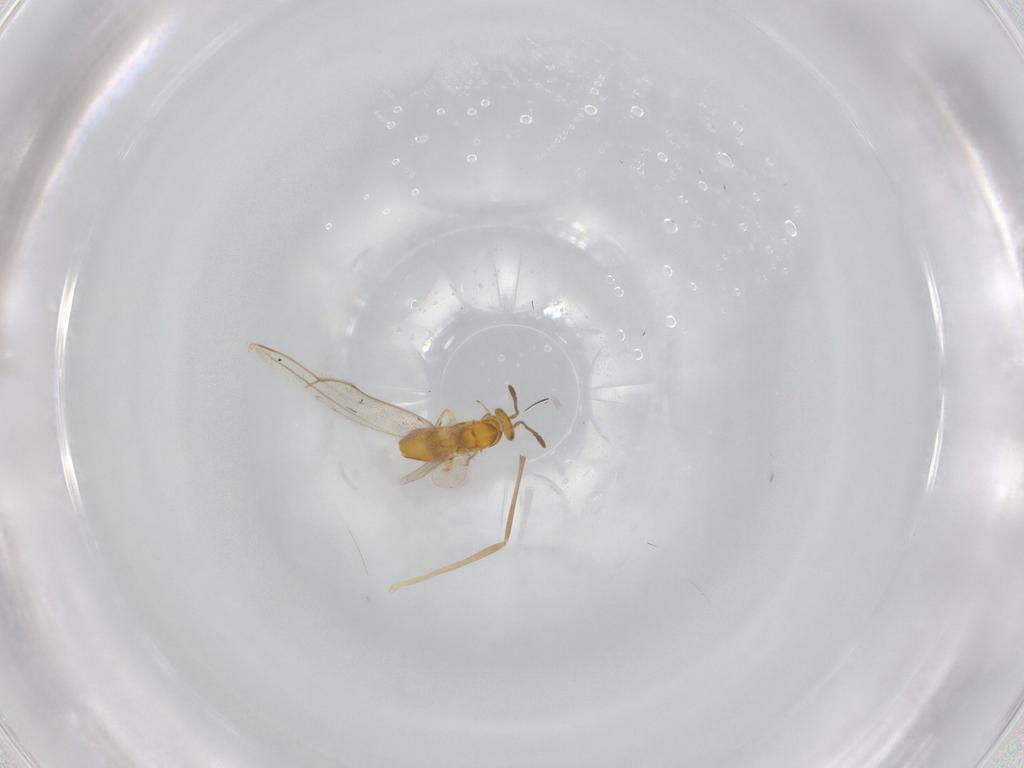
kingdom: Animalia
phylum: Arthropoda
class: Insecta
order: Hymenoptera
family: Braconidae
